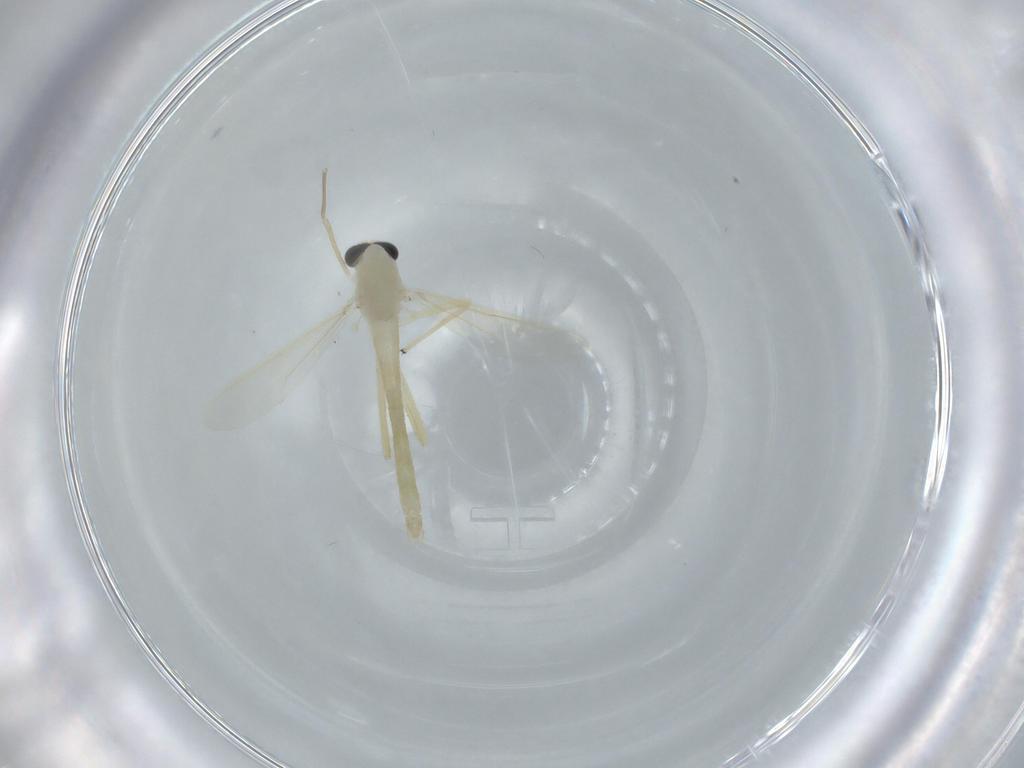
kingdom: Animalia
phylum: Arthropoda
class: Insecta
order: Diptera
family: Chironomidae
